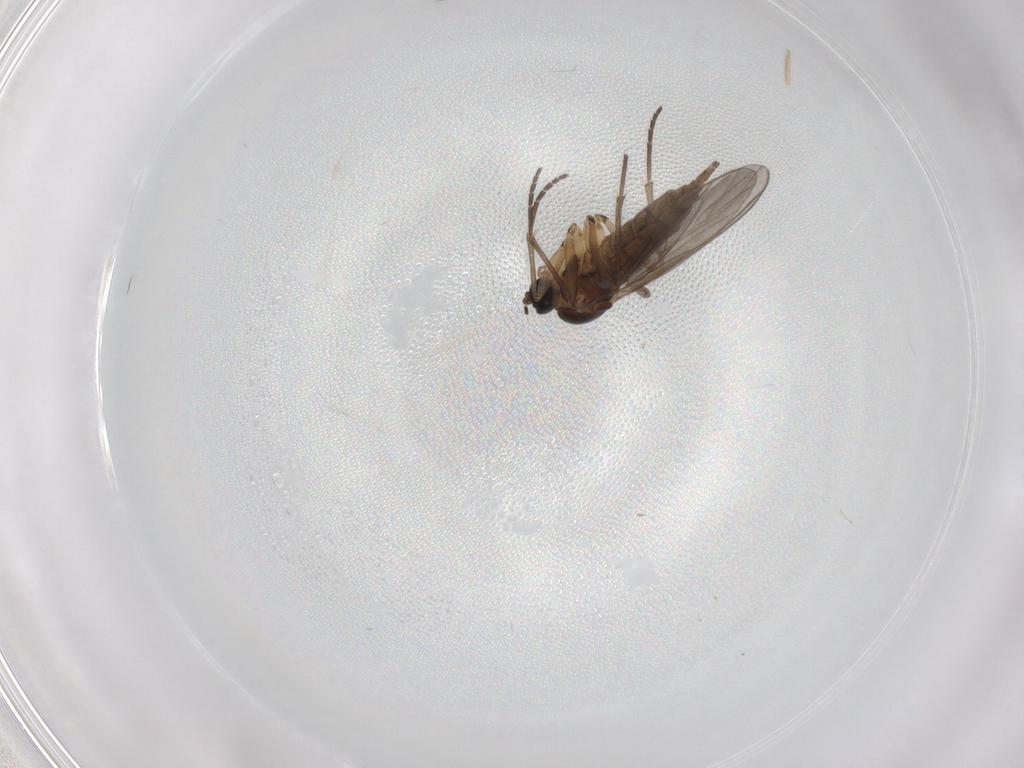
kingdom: Animalia
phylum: Arthropoda
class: Insecta
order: Diptera
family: Sciaridae
